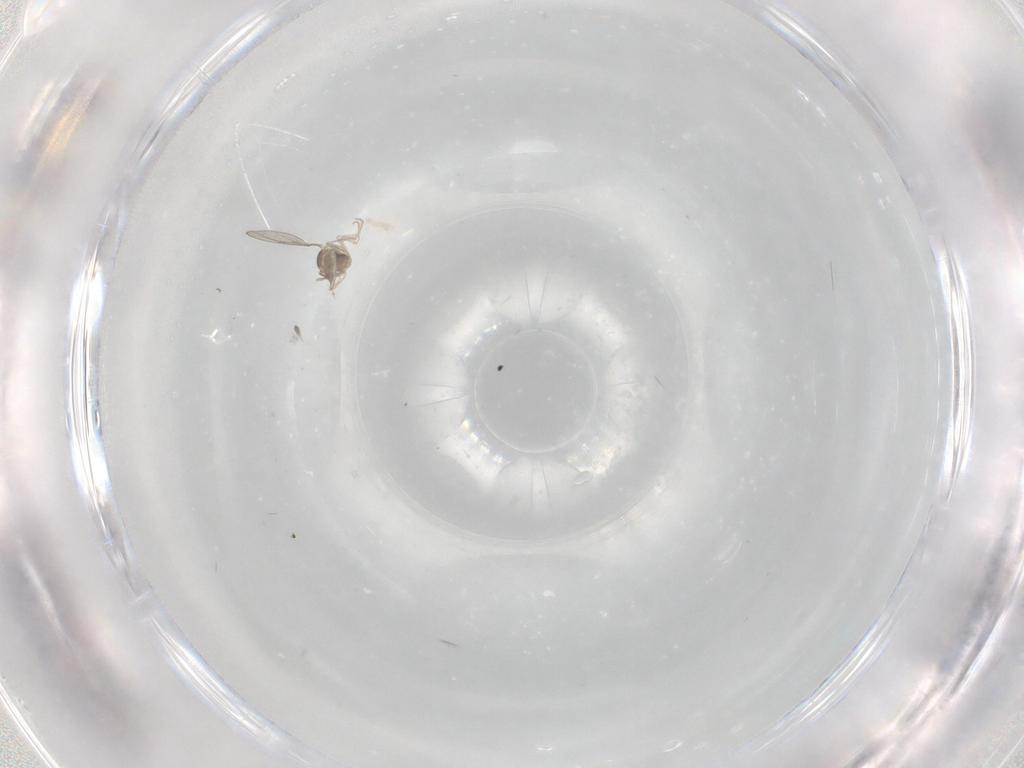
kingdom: Animalia
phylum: Arthropoda
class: Insecta
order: Diptera
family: Cecidomyiidae
